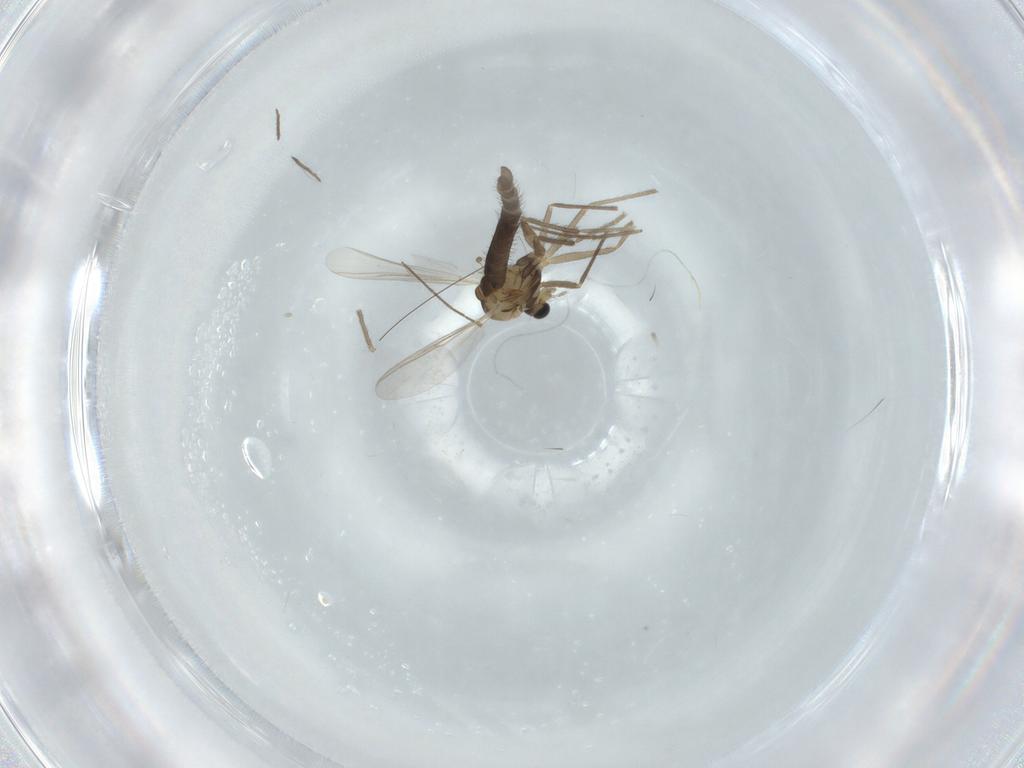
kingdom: Animalia
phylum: Arthropoda
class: Insecta
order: Diptera
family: Chironomidae
